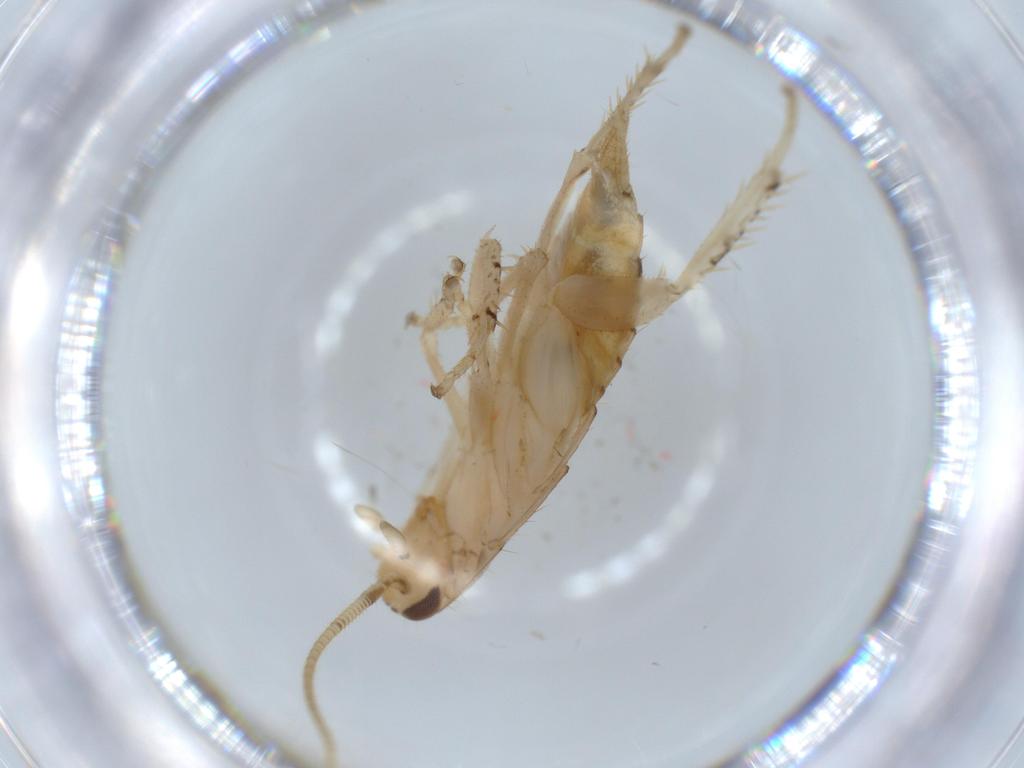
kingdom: Animalia
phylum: Arthropoda
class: Insecta
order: Blattodea
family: Ectobiidae
